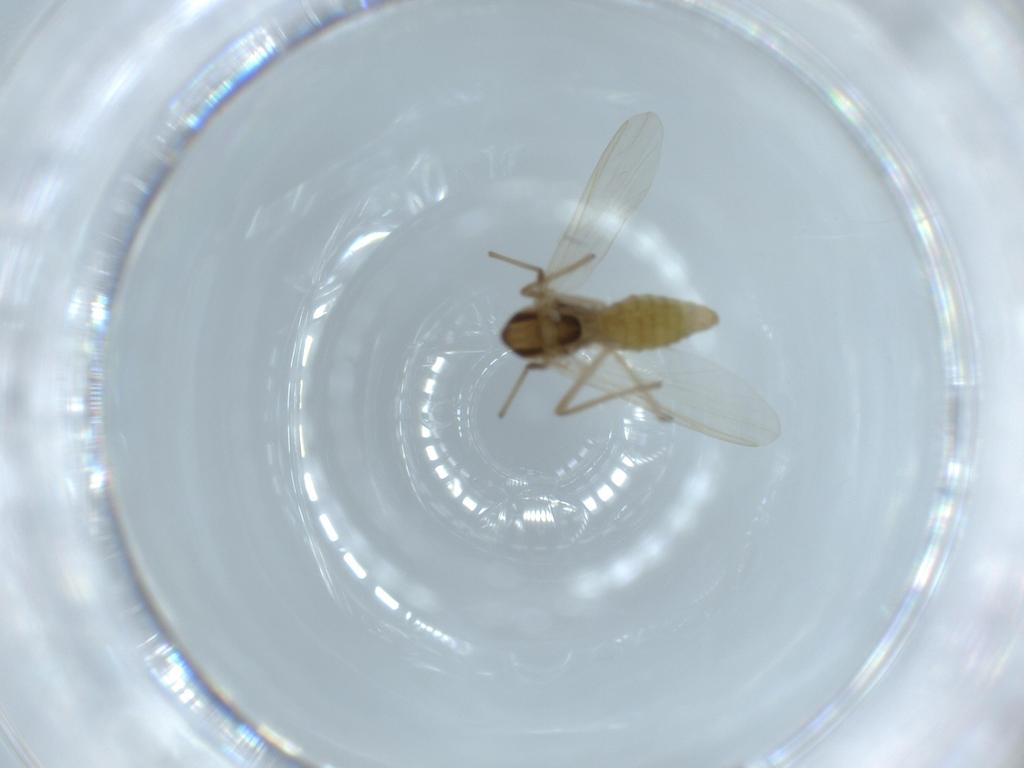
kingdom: Animalia
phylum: Arthropoda
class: Insecta
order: Diptera
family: Chironomidae
